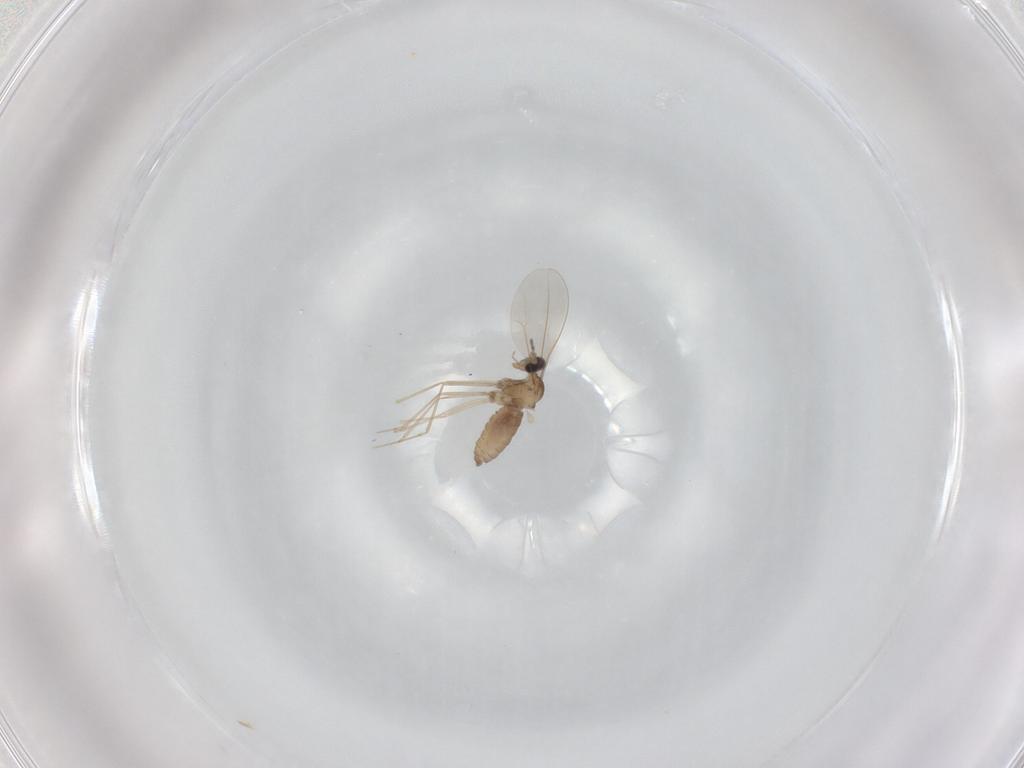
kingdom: Animalia
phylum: Arthropoda
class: Insecta
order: Diptera
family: Cecidomyiidae
